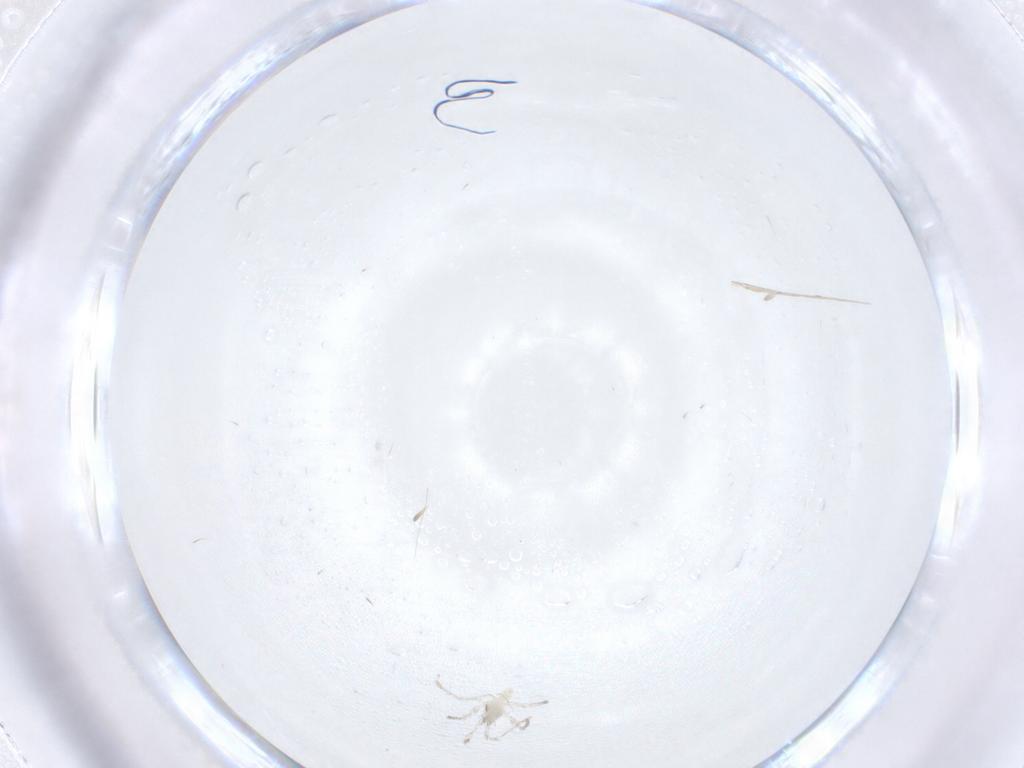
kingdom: Animalia
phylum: Arthropoda
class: Insecta
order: Diptera
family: Cecidomyiidae
